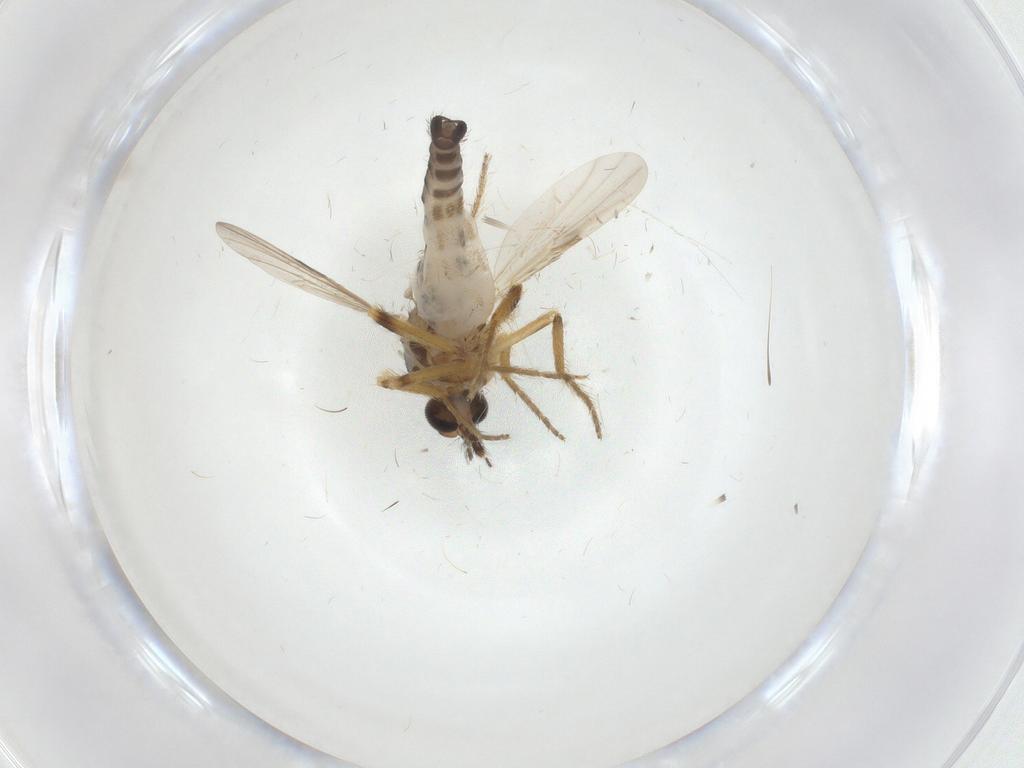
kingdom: Animalia
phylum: Arthropoda
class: Insecta
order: Diptera
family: Ceratopogonidae
